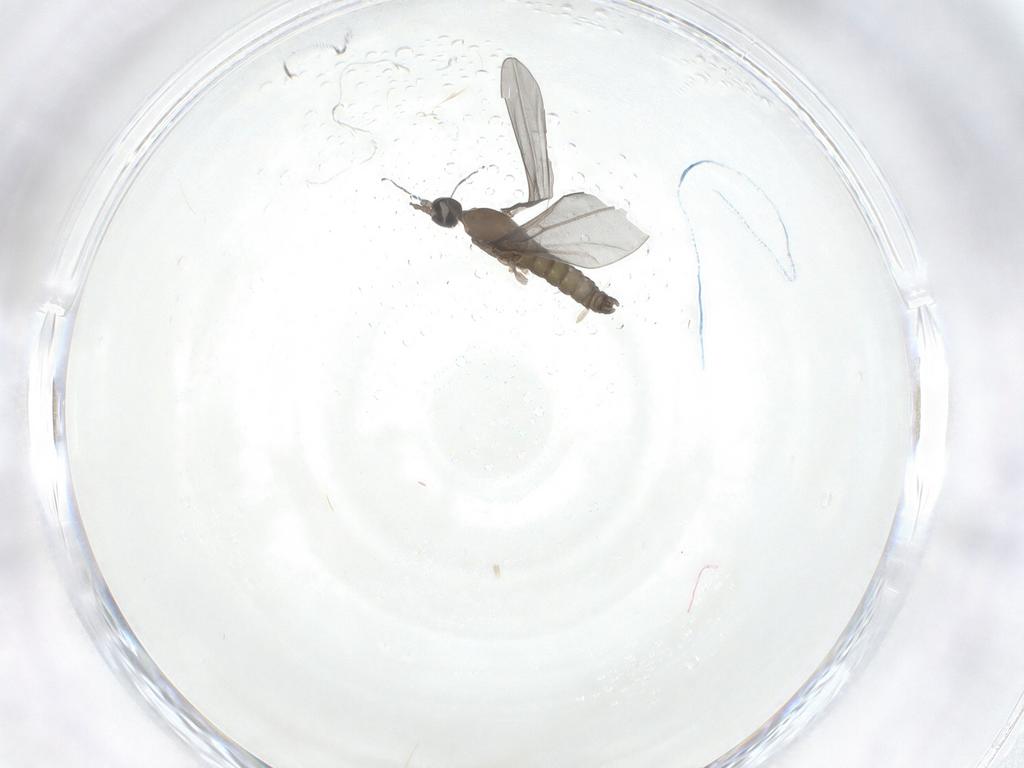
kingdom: Animalia
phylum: Arthropoda
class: Insecta
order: Diptera
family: Cecidomyiidae
